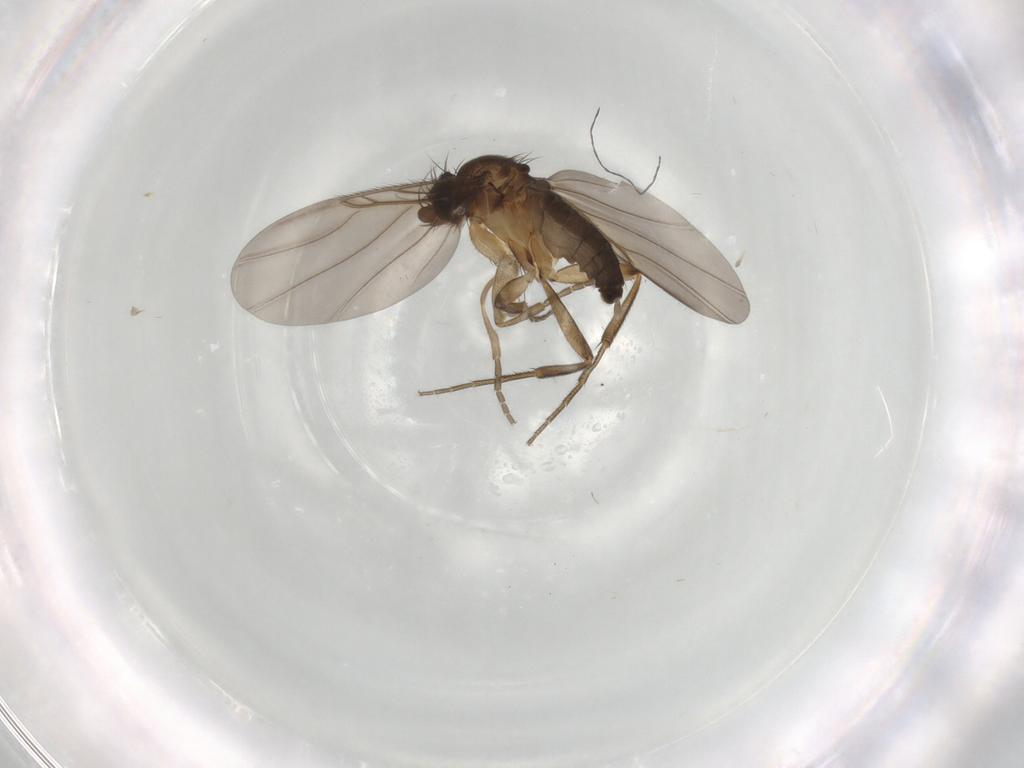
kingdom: Animalia
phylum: Arthropoda
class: Insecta
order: Diptera
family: Phoridae
